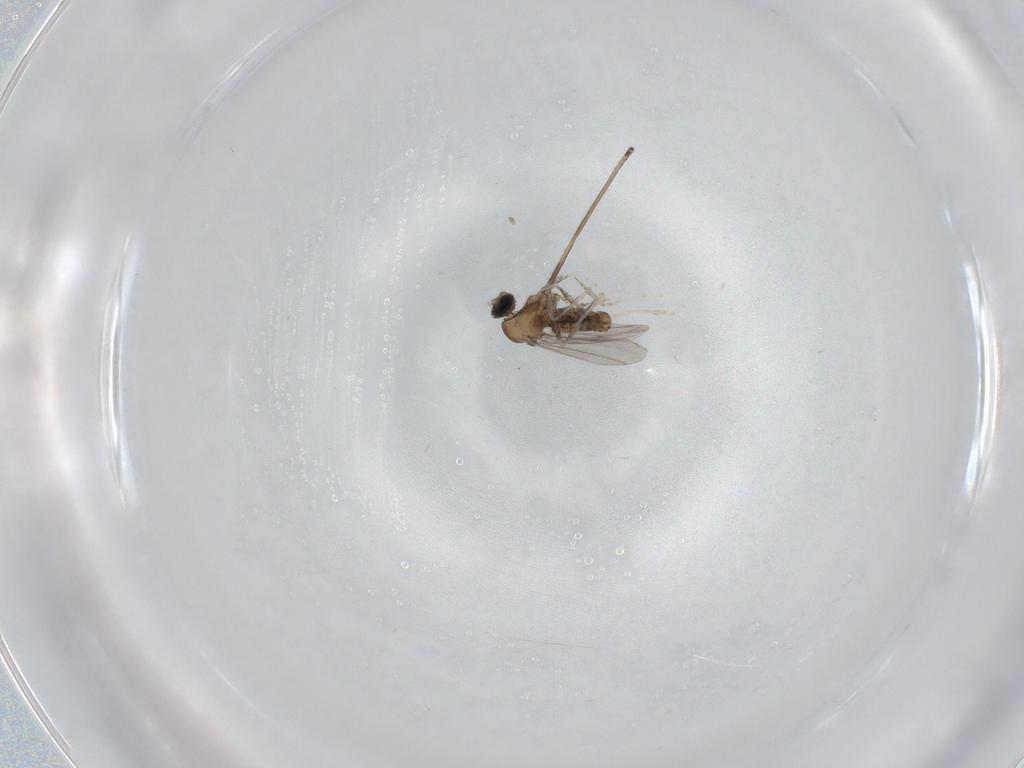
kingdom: Animalia
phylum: Arthropoda
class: Insecta
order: Diptera
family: Cecidomyiidae
